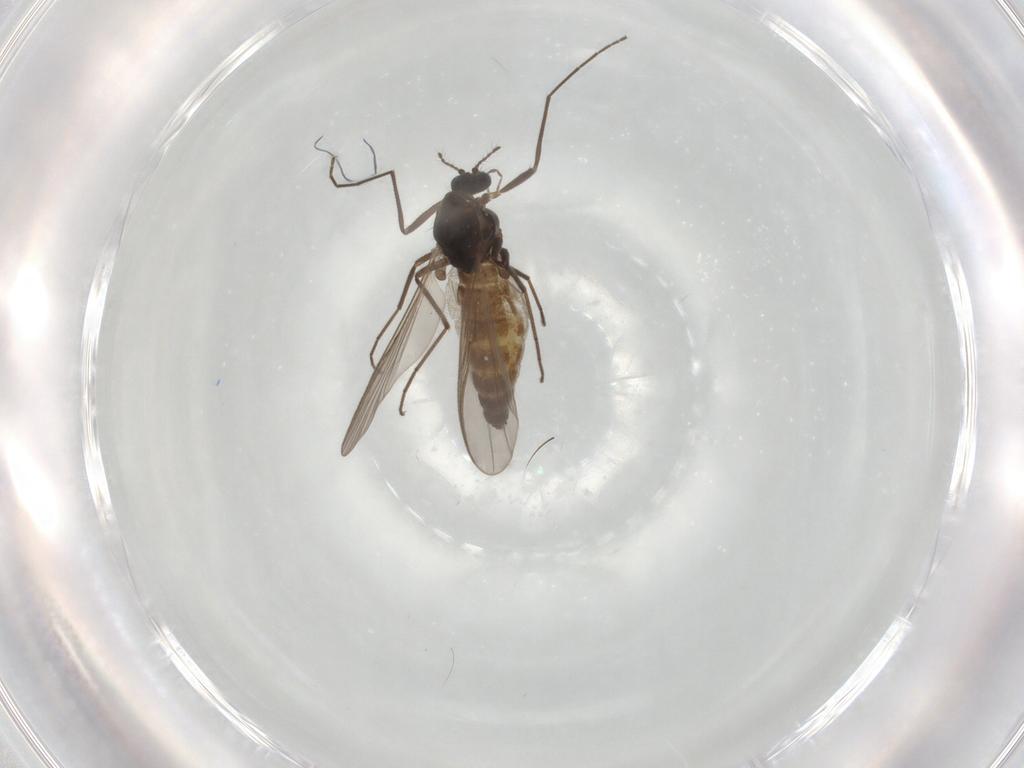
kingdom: Animalia
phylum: Arthropoda
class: Insecta
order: Diptera
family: Chironomidae
